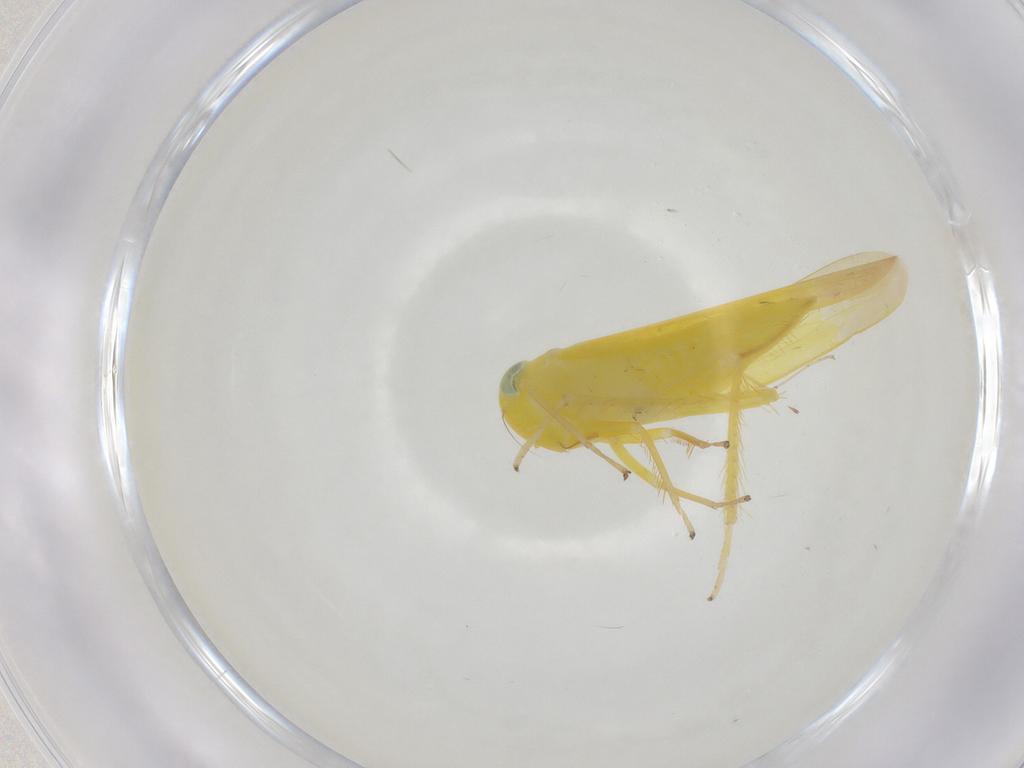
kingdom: Animalia
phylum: Arthropoda
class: Insecta
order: Hemiptera
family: Cicadellidae
